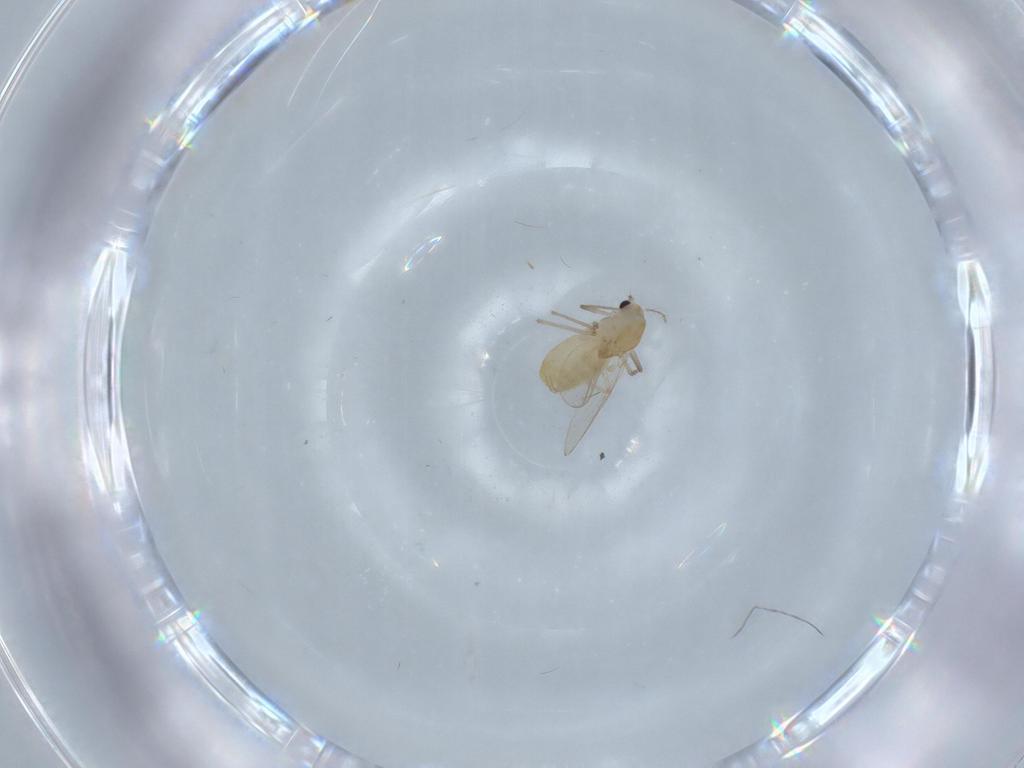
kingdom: Animalia
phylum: Arthropoda
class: Insecta
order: Diptera
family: Chironomidae
